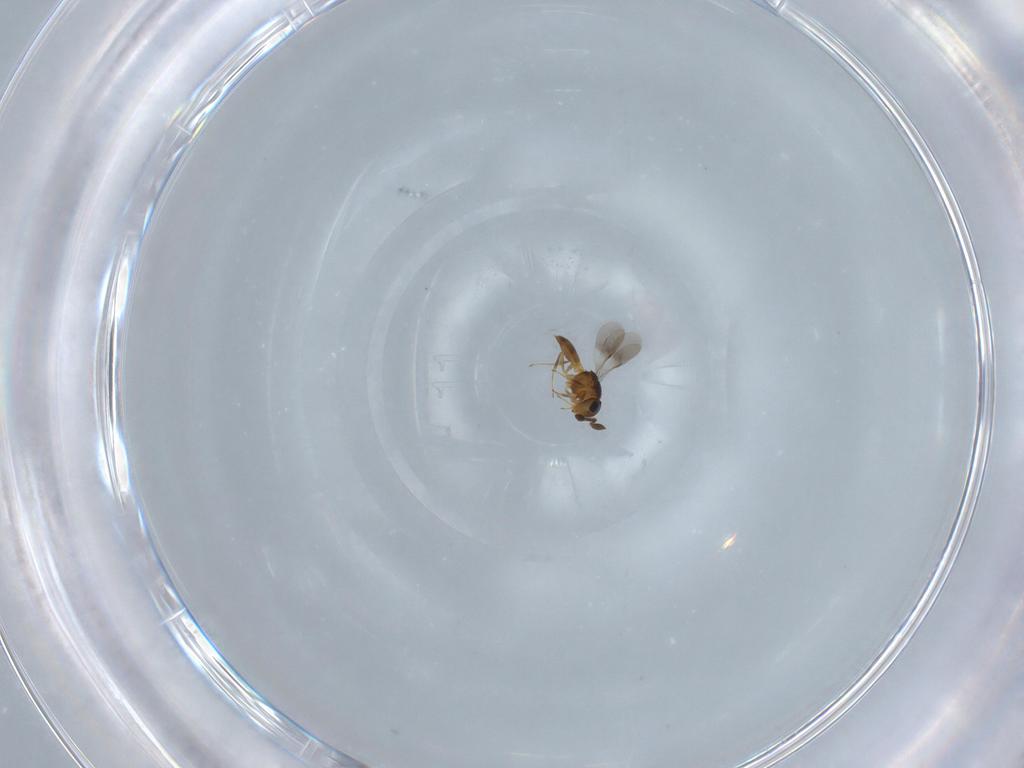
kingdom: Animalia
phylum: Arthropoda
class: Insecta
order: Hymenoptera
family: Scelionidae
